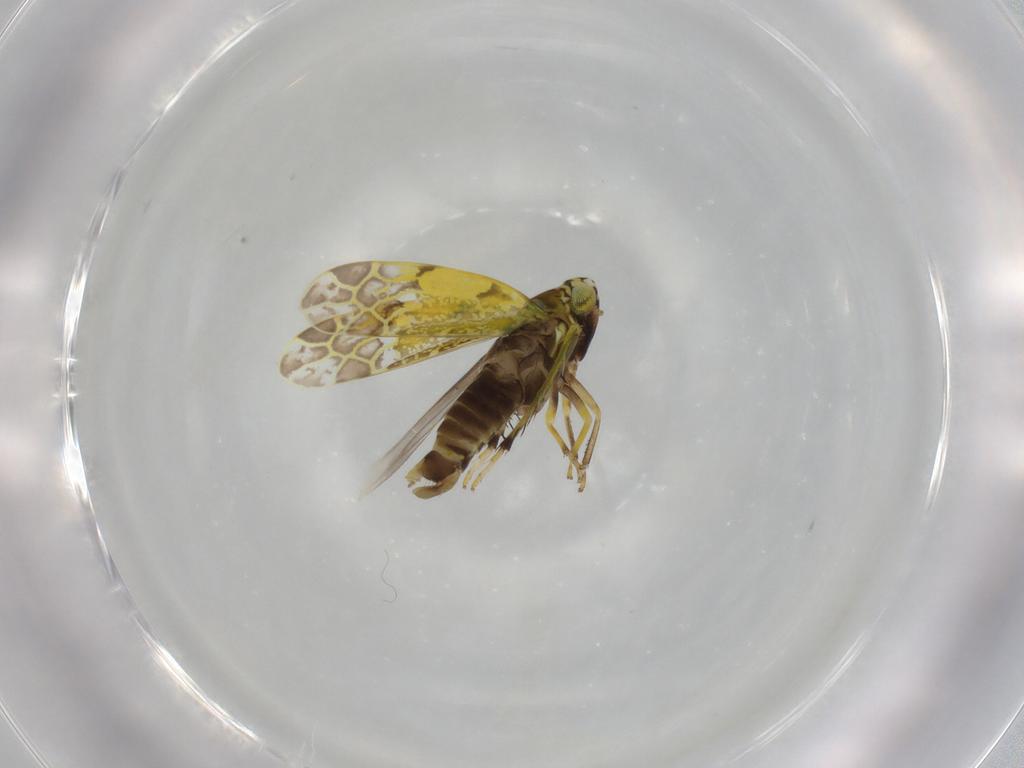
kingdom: Animalia
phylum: Arthropoda
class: Insecta
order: Hemiptera
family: Cicadellidae
